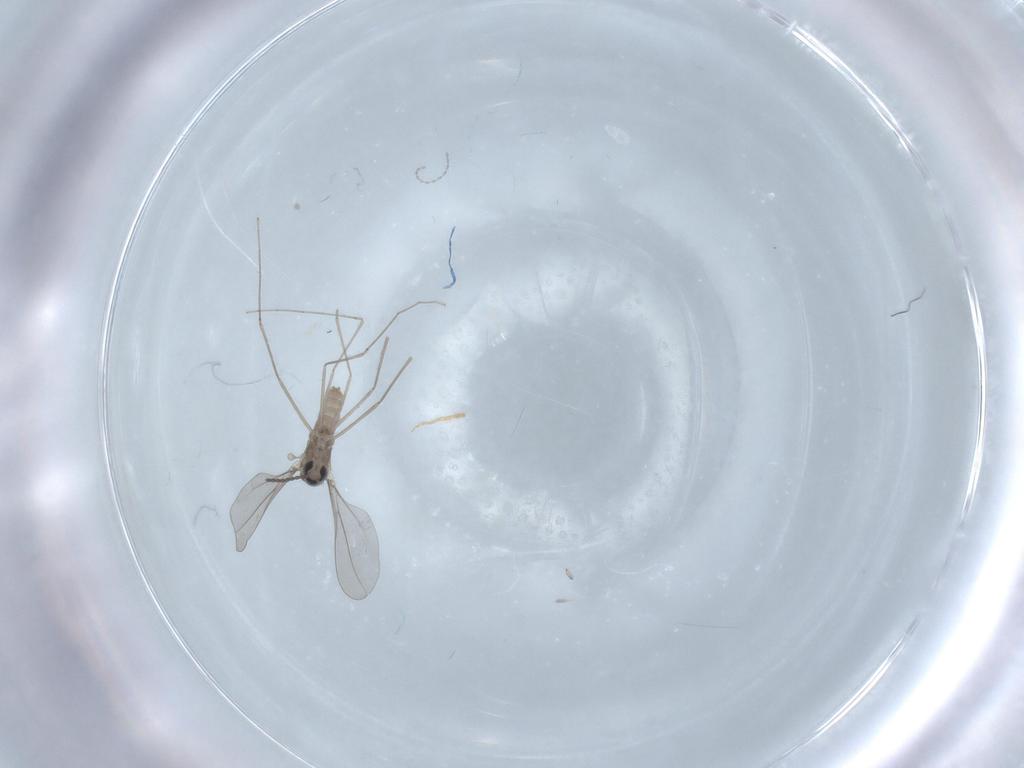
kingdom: Animalia
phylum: Arthropoda
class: Insecta
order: Diptera
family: Cecidomyiidae
